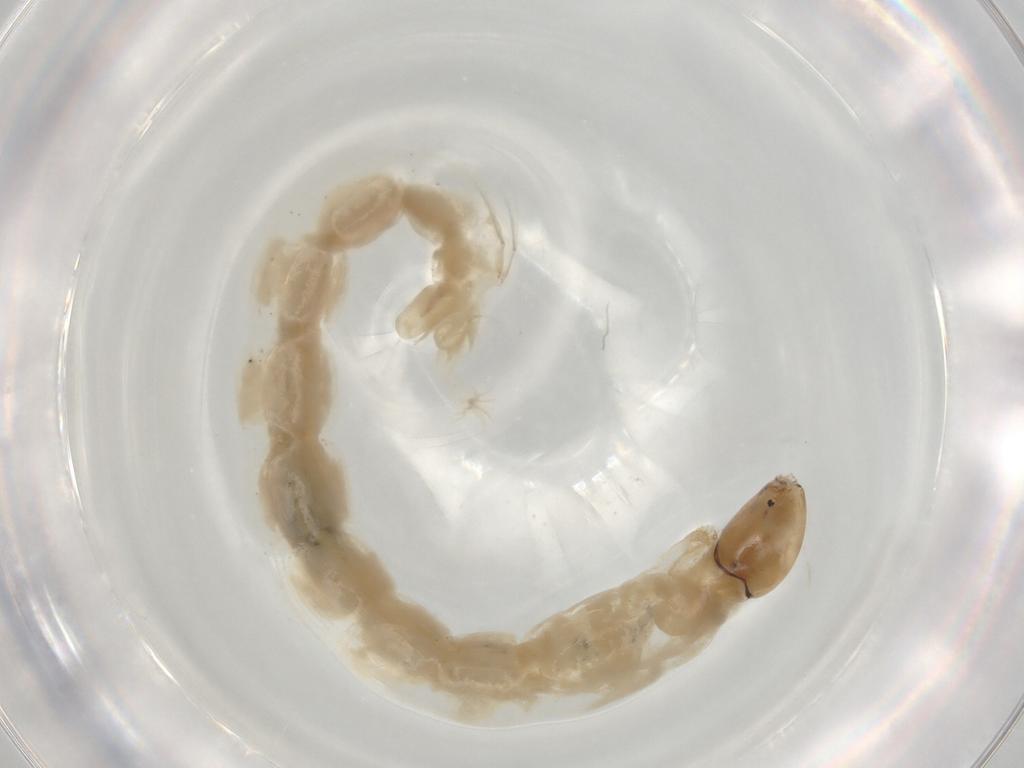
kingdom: Animalia
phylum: Arthropoda
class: Insecta
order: Diptera
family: Chironomidae
